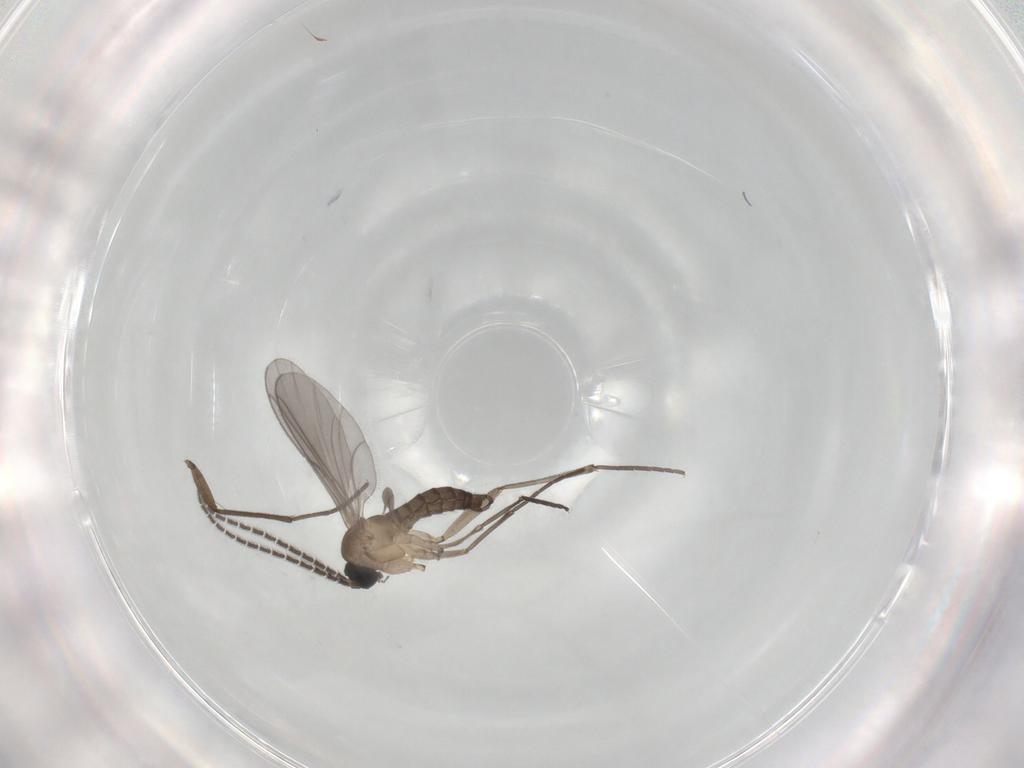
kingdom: Animalia
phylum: Arthropoda
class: Insecta
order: Diptera
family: Sciaridae
